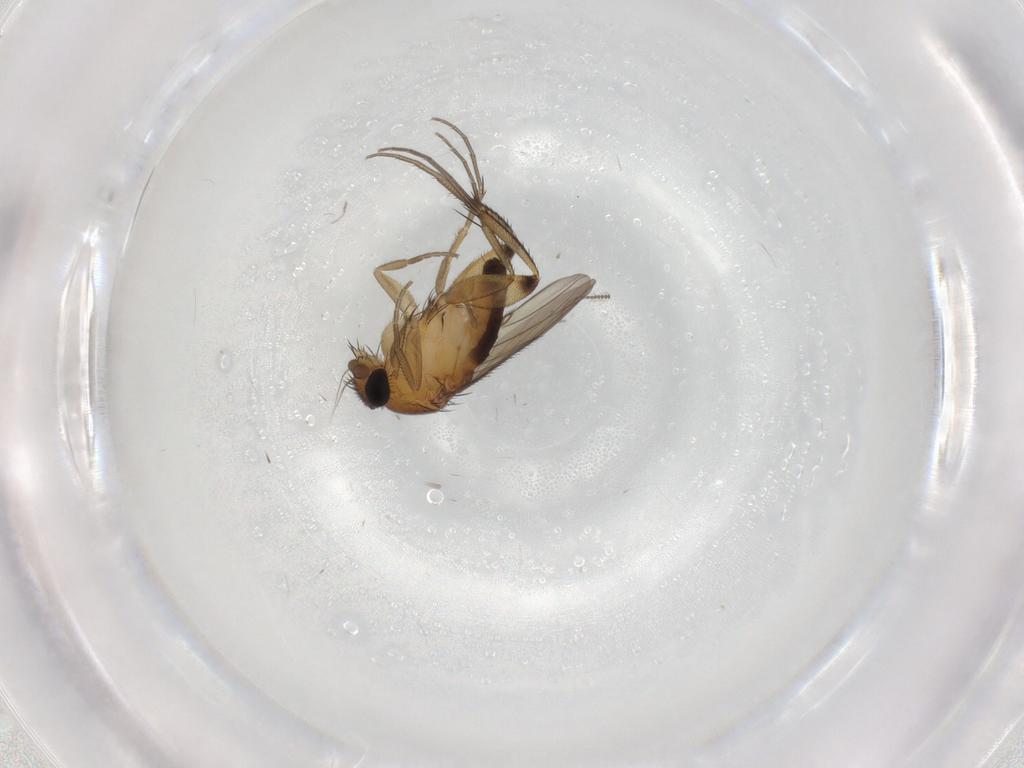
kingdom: Animalia
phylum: Arthropoda
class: Insecta
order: Diptera
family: Phoridae
